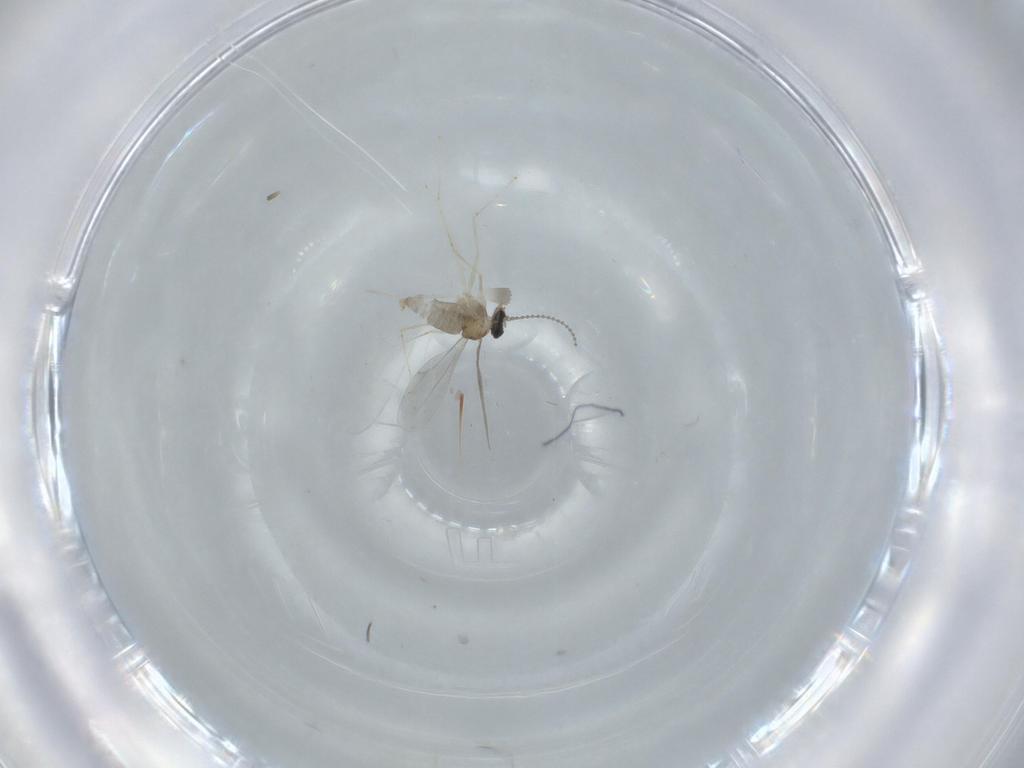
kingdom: Animalia
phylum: Arthropoda
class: Insecta
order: Diptera
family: Cecidomyiidae
